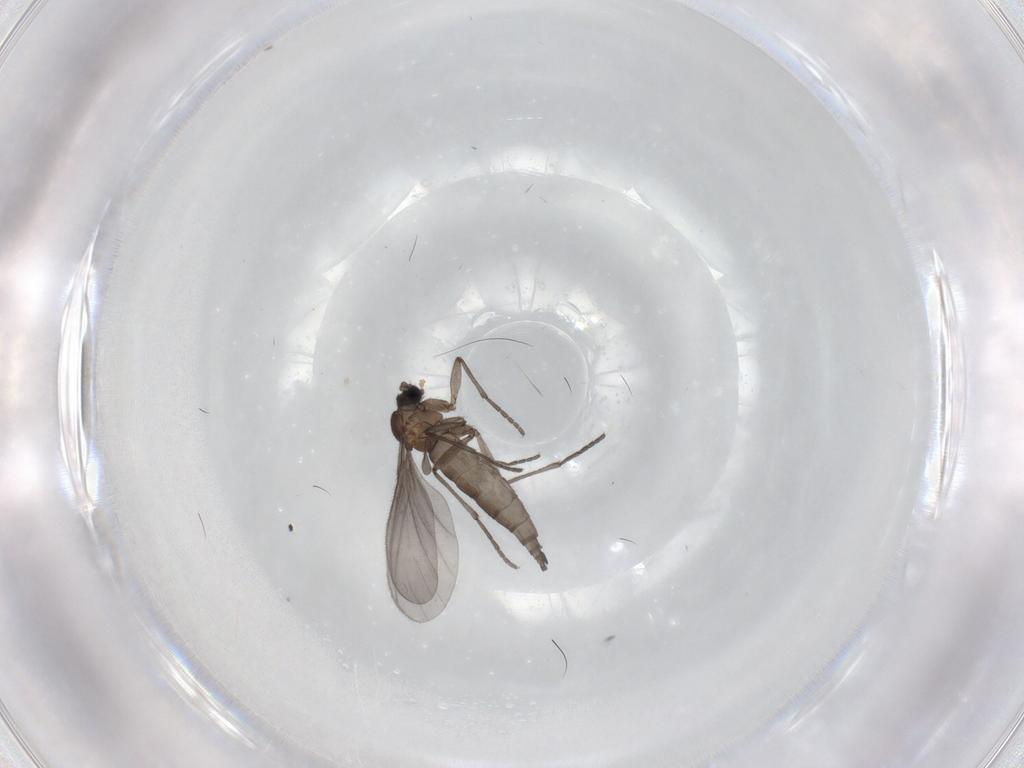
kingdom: Animalia
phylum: Arthropoda
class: Insecta
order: Diptera
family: Sciaridae
